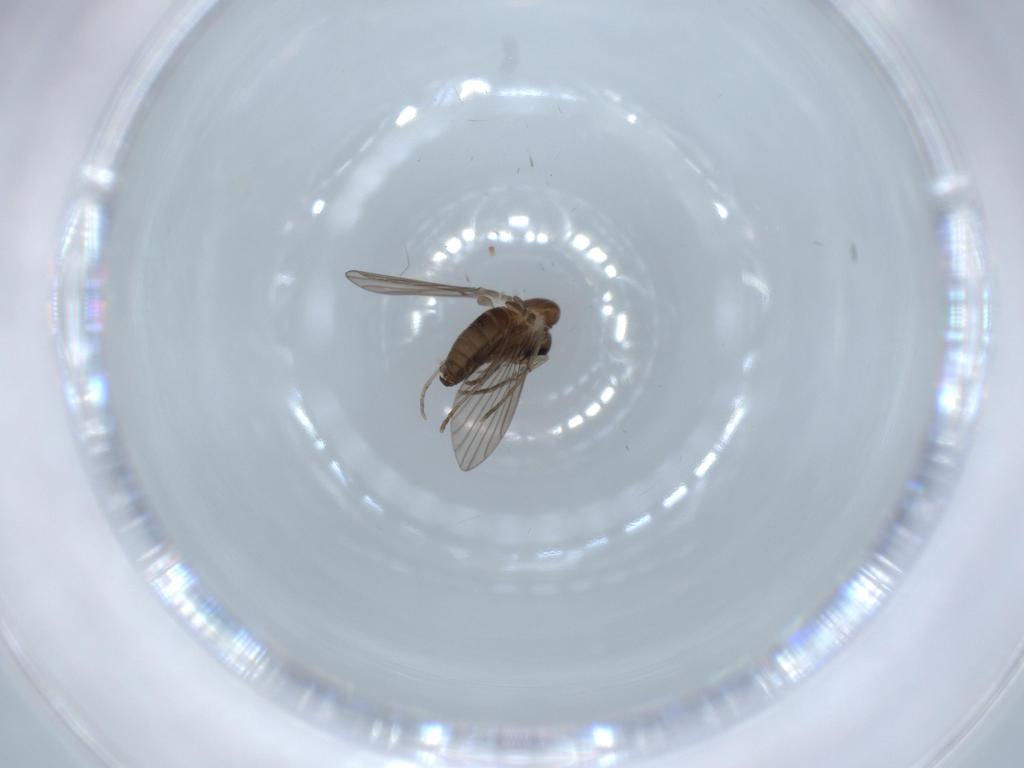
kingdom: Animalia
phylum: Arthropoda
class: Insecta
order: Diptera
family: Psychodidae
